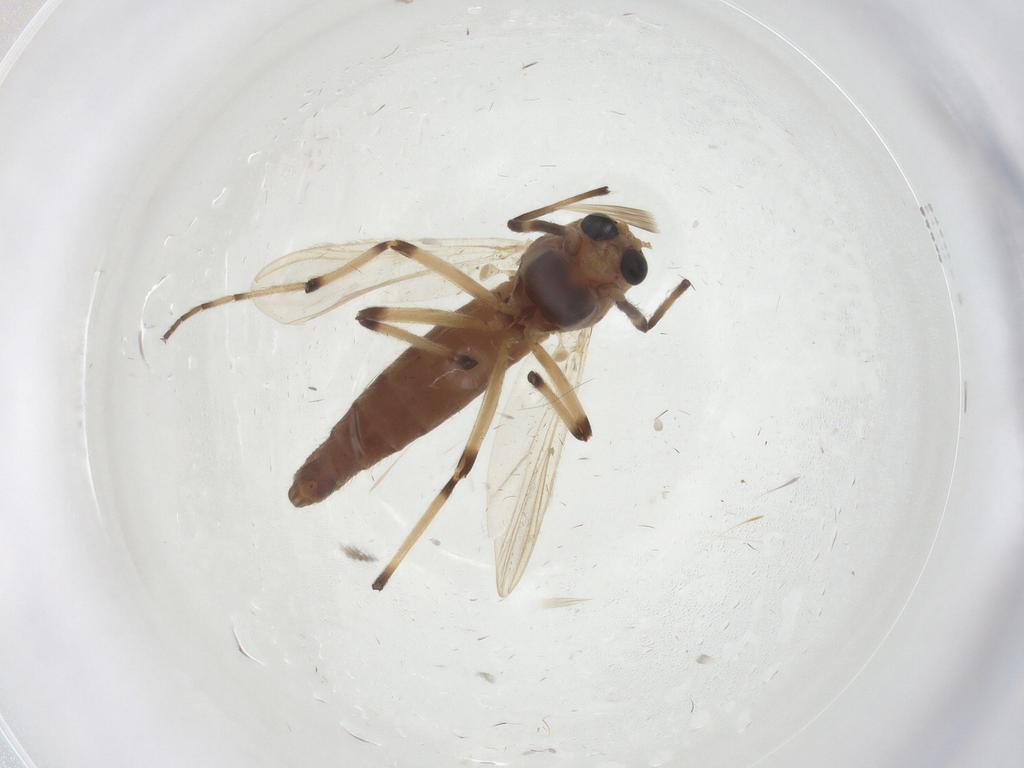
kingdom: Animalia
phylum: Arthropoda
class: Insecta
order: Diptera
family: Chironomidae
